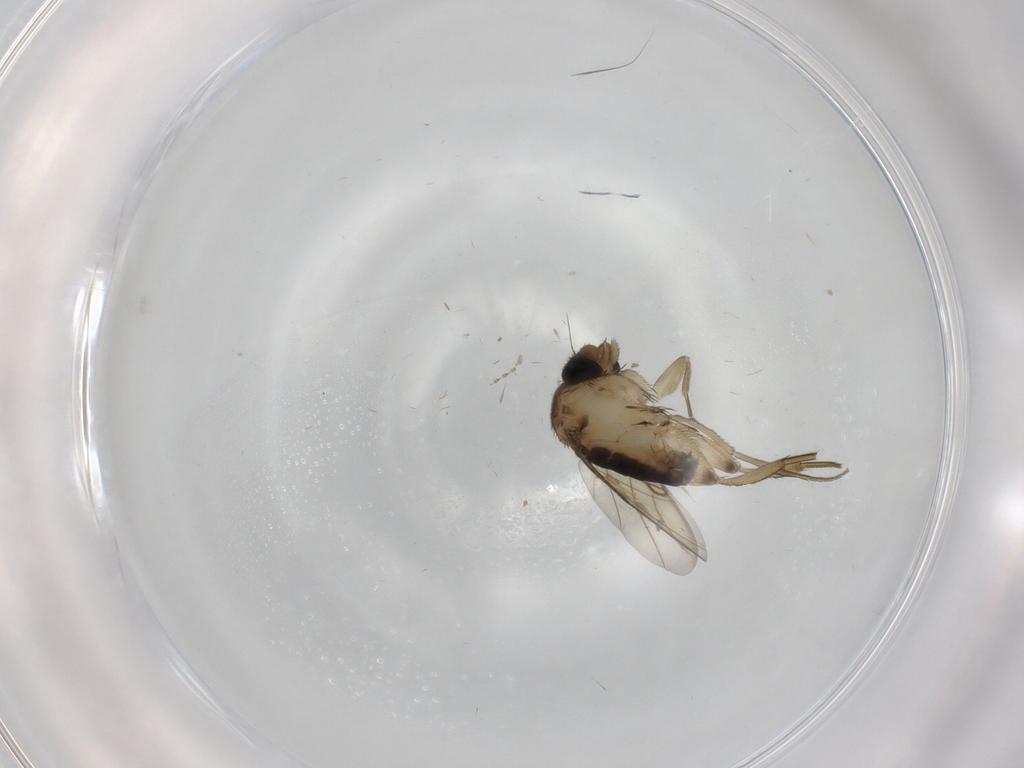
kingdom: Animalia
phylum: Arthropoda
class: Insecta
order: Diptera
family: Phoridae
